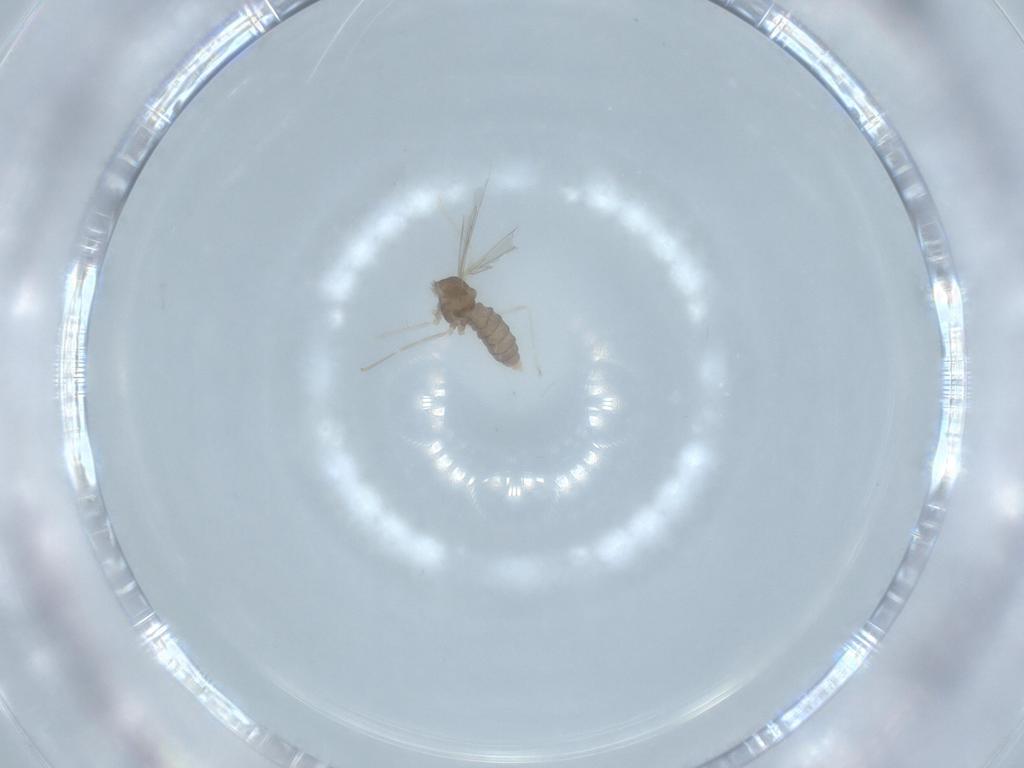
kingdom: Animalia
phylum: Arthropoda
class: Insecta
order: Diptera
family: Cecidomyiidae
